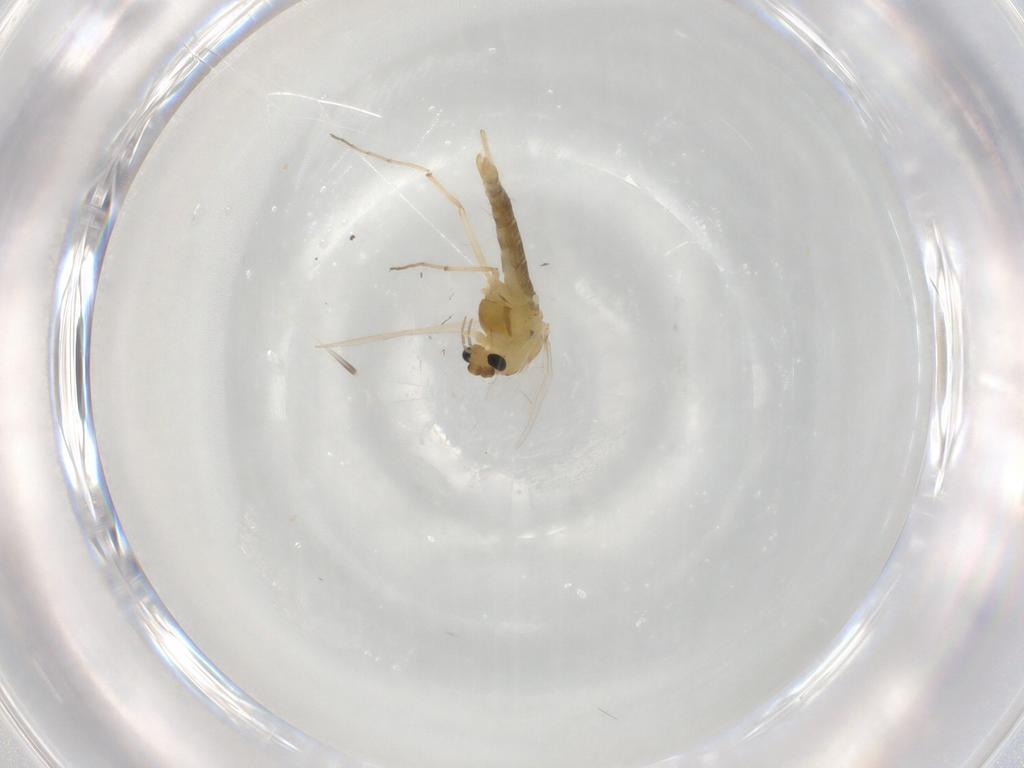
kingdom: Animalia
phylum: Arthropoda
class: Insecta
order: Diptera
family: Chironomidae
